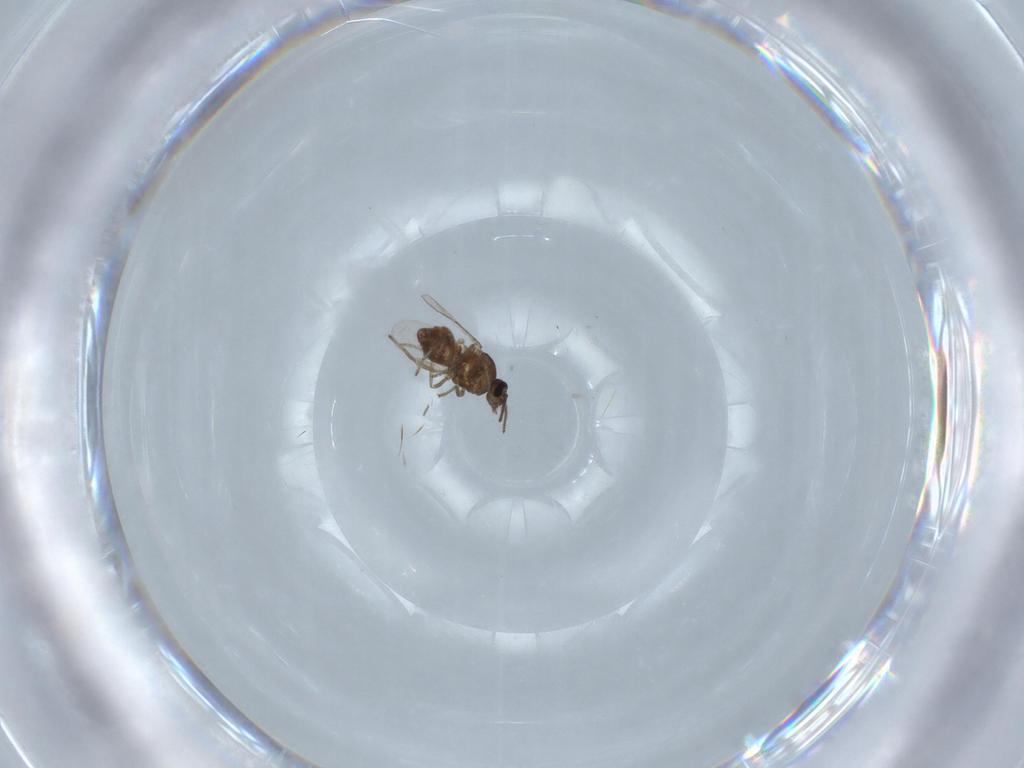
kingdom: Animalia
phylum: Arthropoda
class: Insecta
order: Diptera
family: Ceratopogonidae
